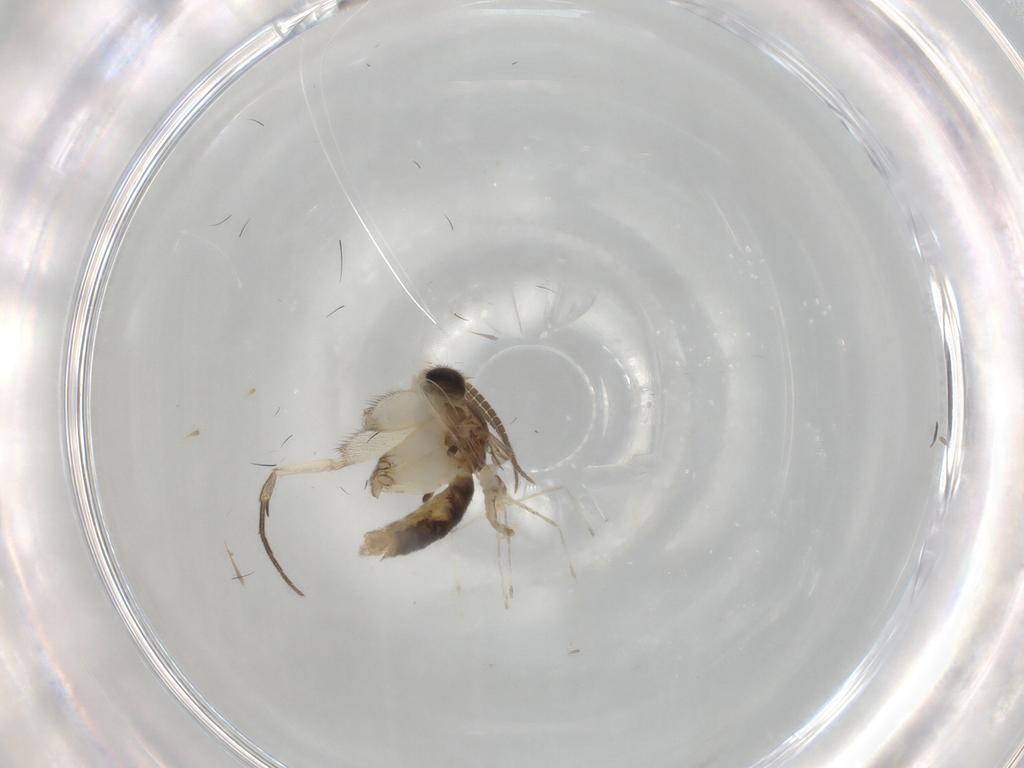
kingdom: Animalia
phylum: Arthropoda
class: Insecta
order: Diptera
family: Mycetophilidae
